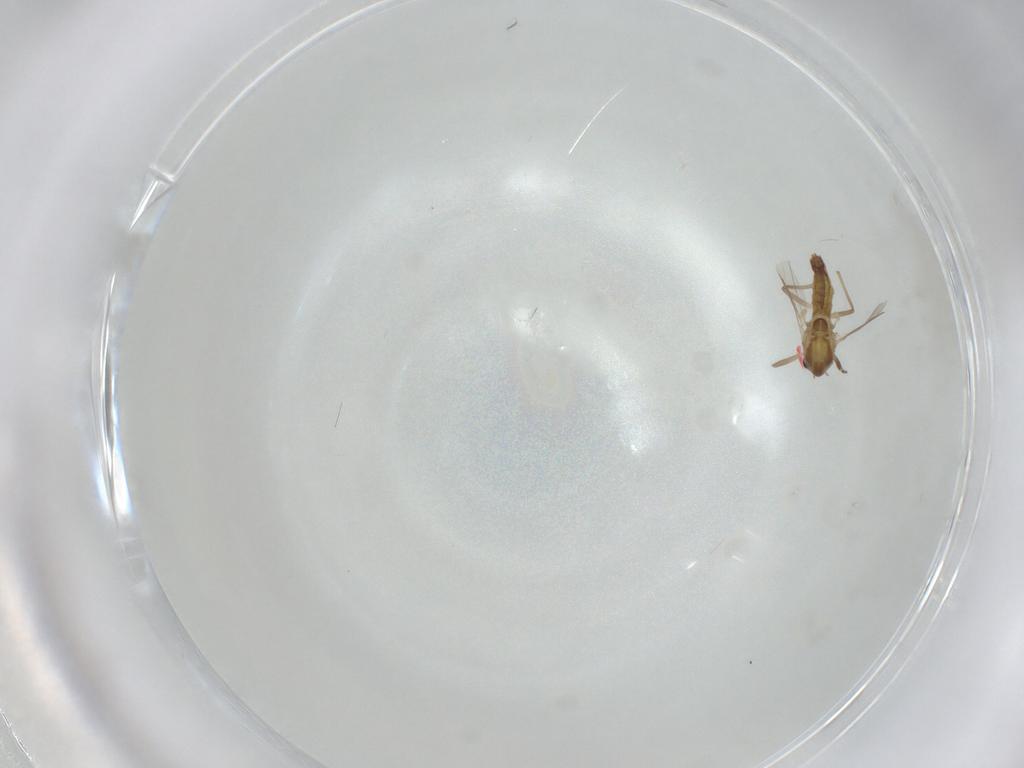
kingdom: Animalia
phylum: Arthropoda
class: Insecta
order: Diptera
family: Chironomidae
